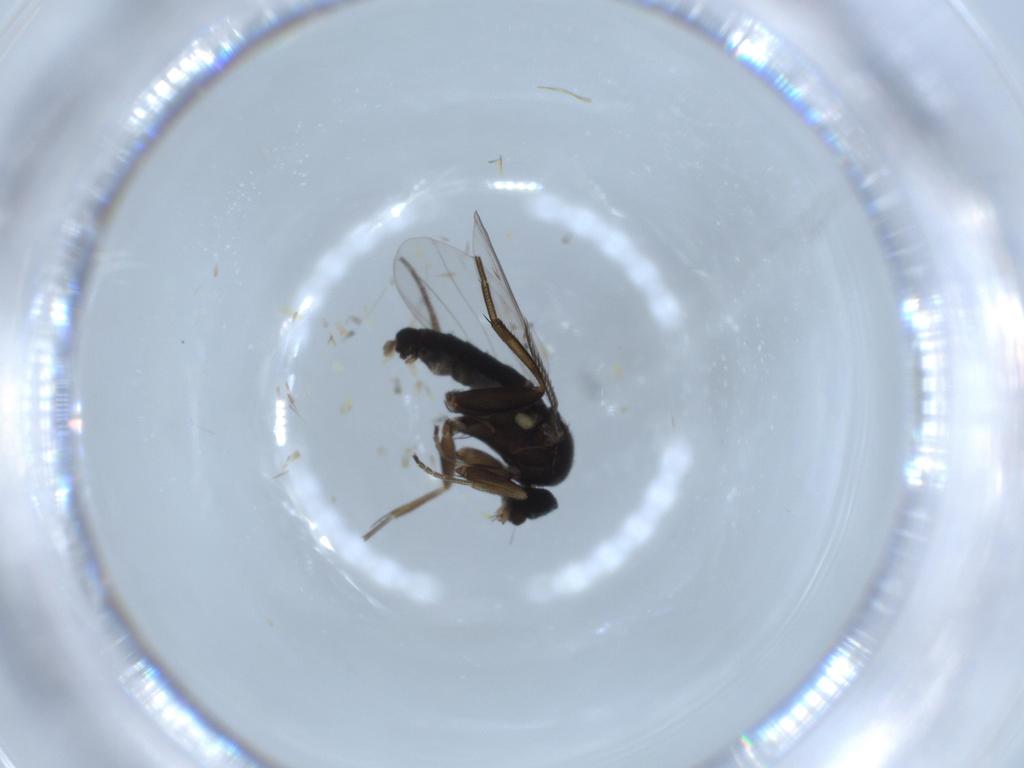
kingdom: Animalia
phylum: Arthropoda
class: Insecta
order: Diptera
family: Phoridae
